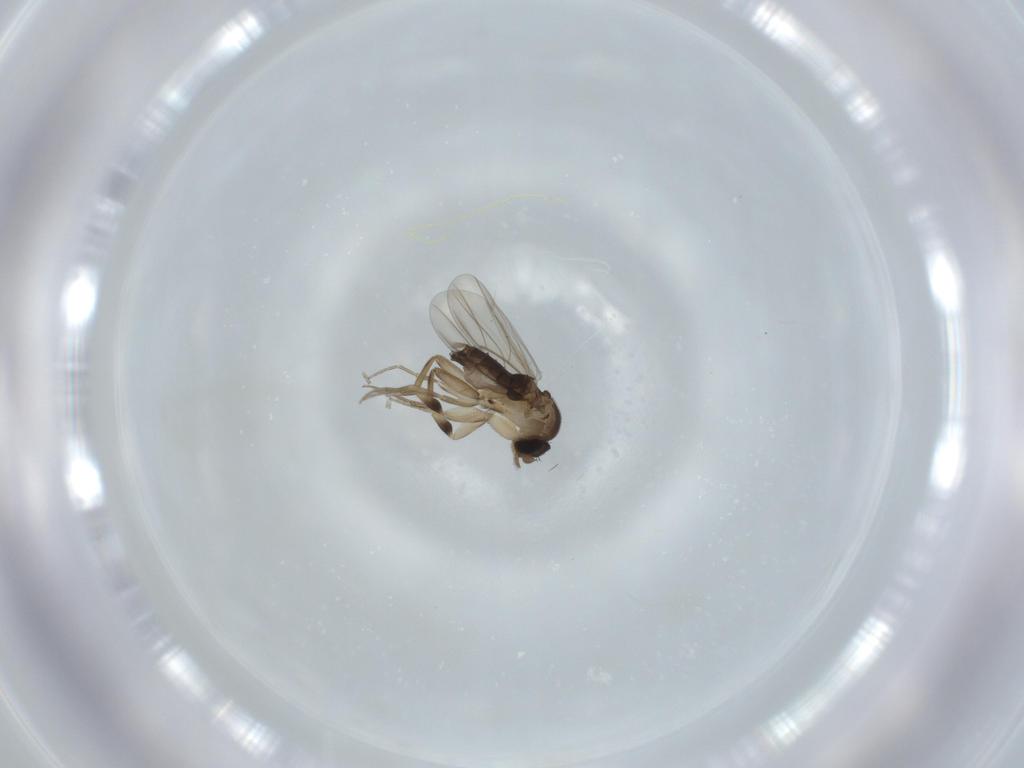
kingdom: Animalia
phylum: Arthropoda
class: Insecta
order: Diptera
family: Phoridae
